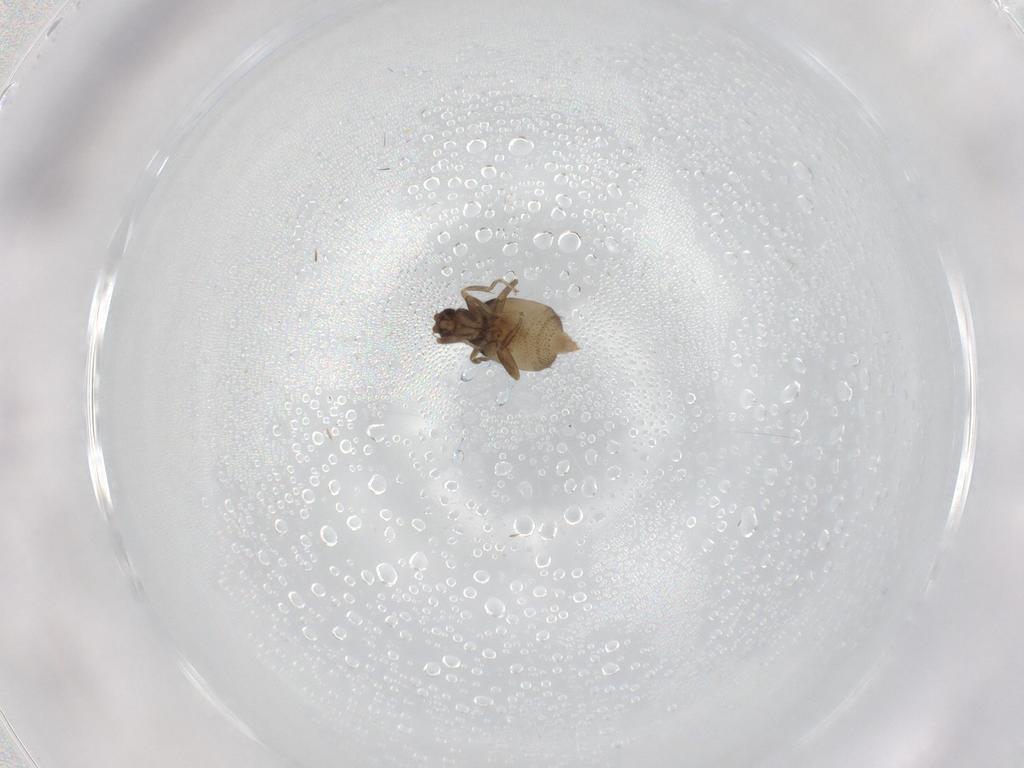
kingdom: Animalia
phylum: Arthropoda
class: Insecta
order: Diptera
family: Phoridae
